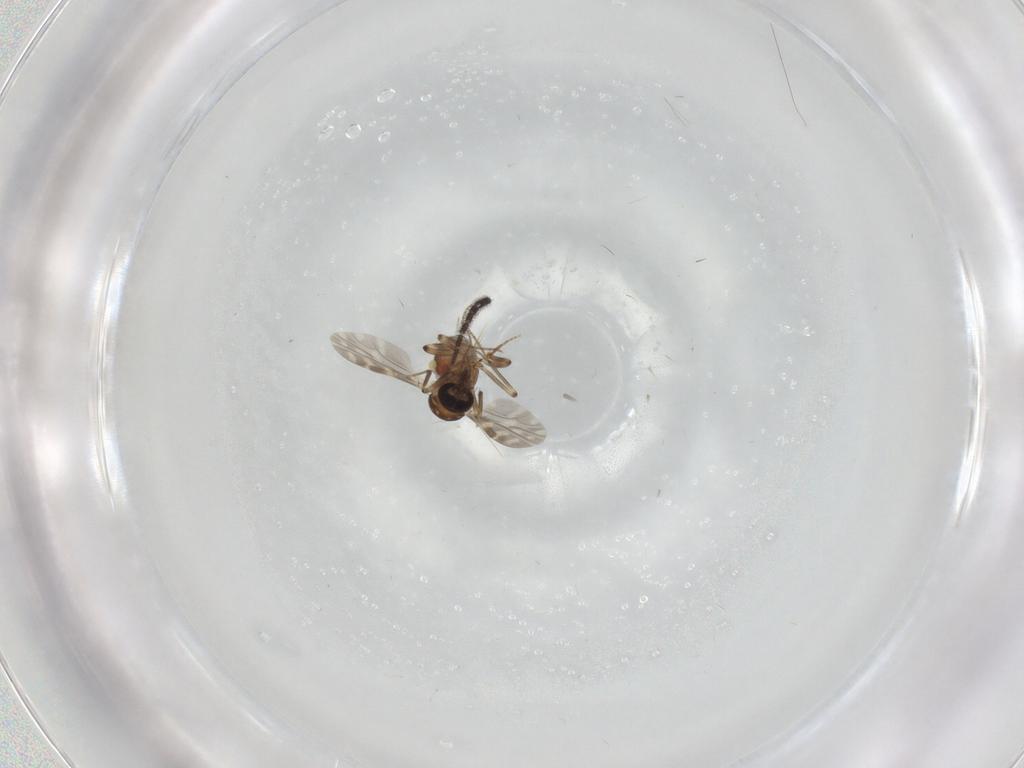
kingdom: Animalia
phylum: Arthropoda
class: Insecta
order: Diptera
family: Ceratopogonidae
